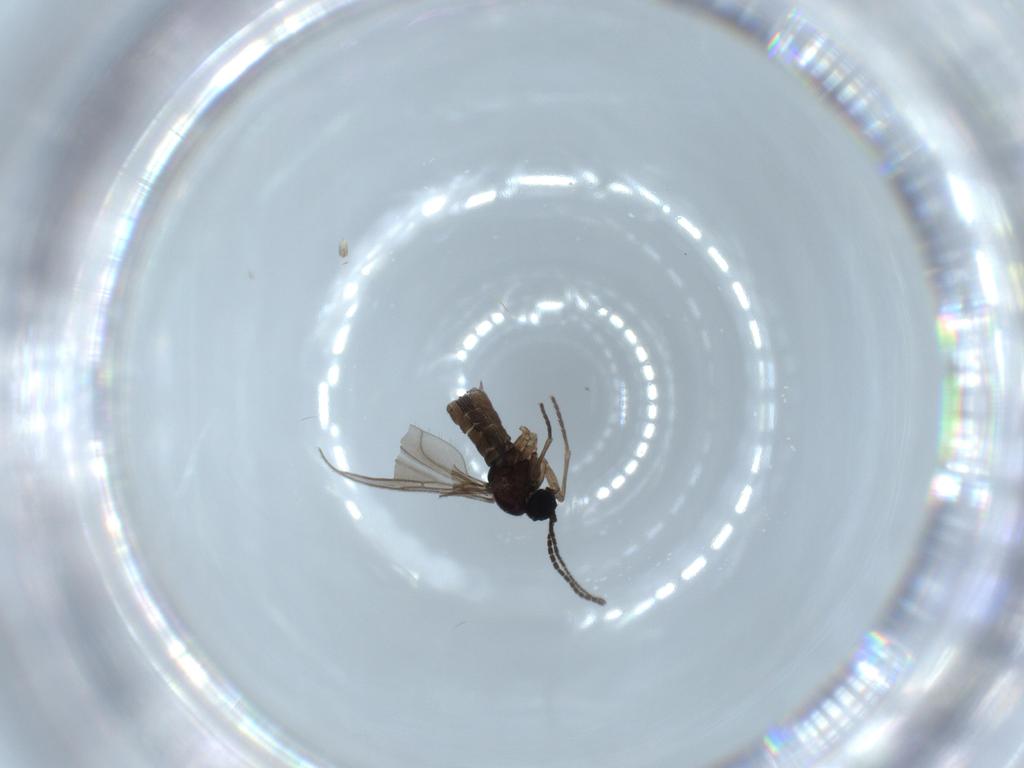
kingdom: Animalia
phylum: Arthropoda
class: Insecta
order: Diptera
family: Sciaridae
